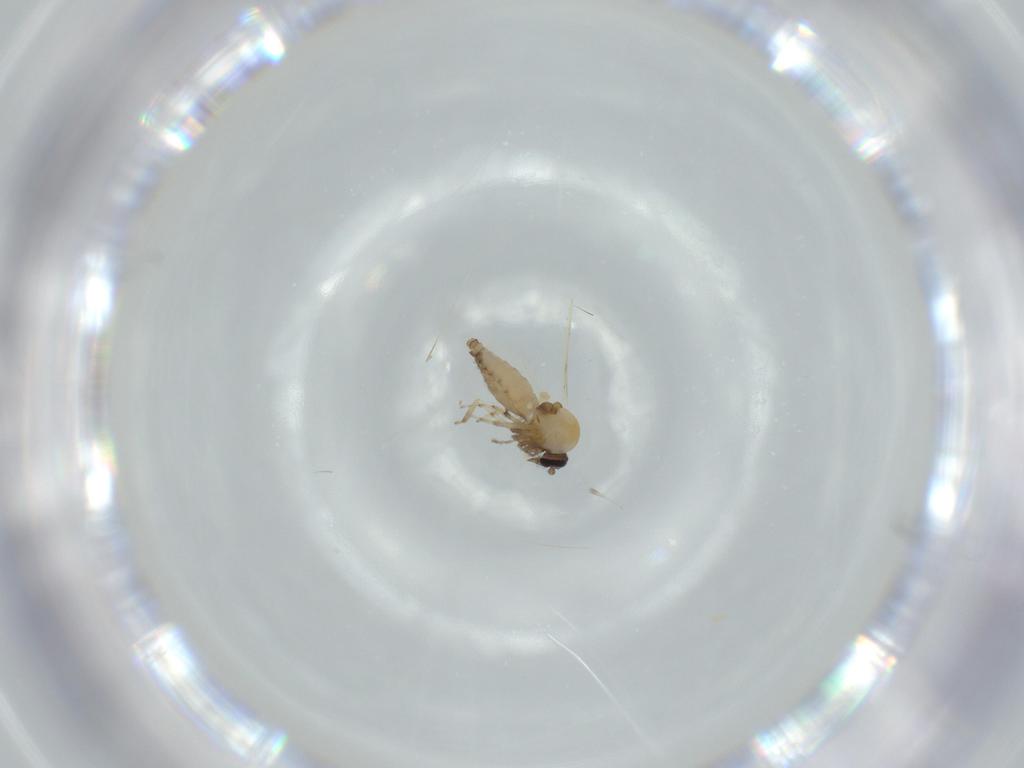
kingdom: Animalia
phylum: Arthropoda
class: Insecta
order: Diptera
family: Ceratopogonidae
